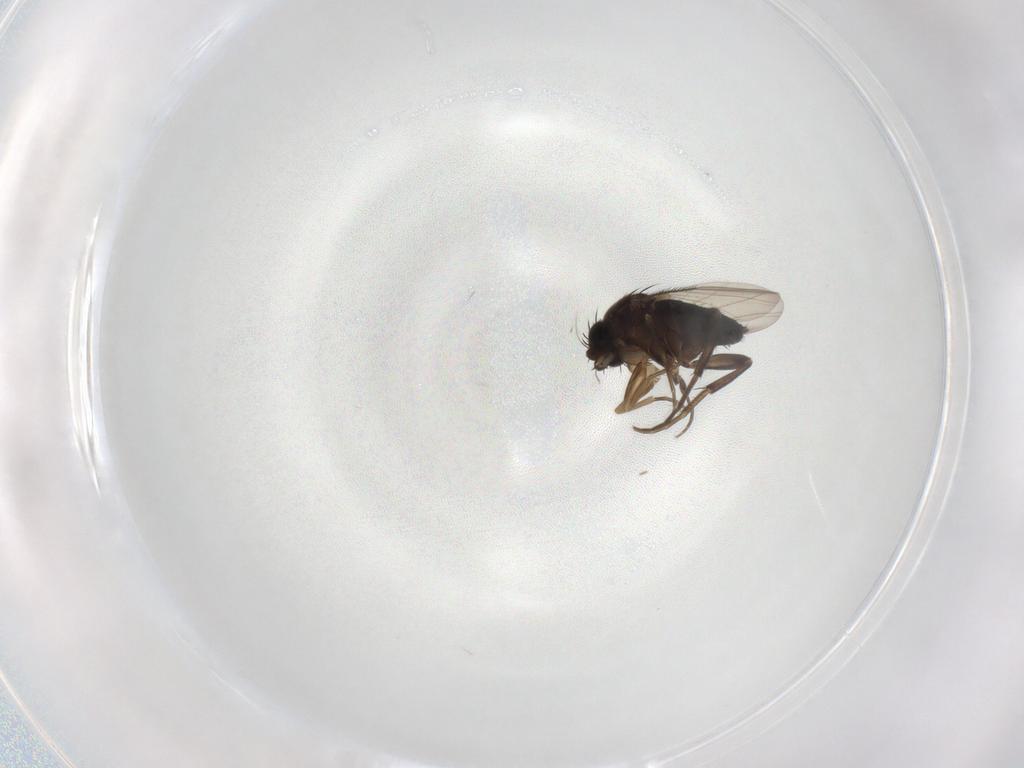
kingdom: Animalia
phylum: Arthropoda
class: Insecta
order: Diptera
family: Phoridae
